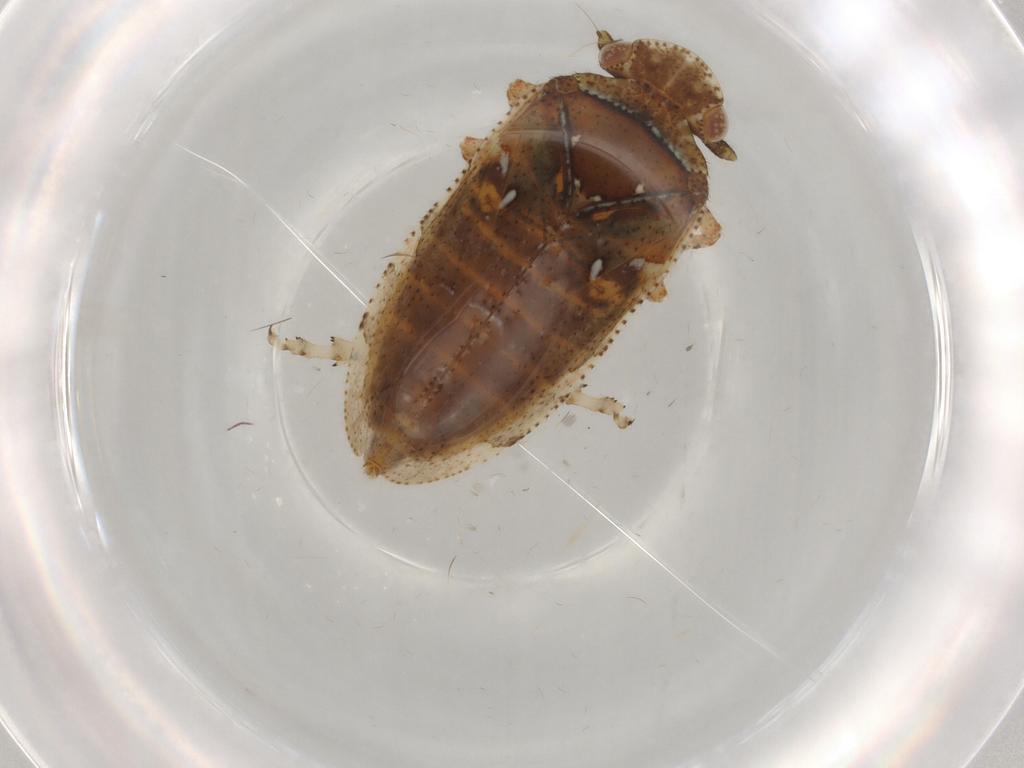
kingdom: Animalia
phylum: Arthropoda
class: Insecta
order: Hemiptera
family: Tettigometridae
